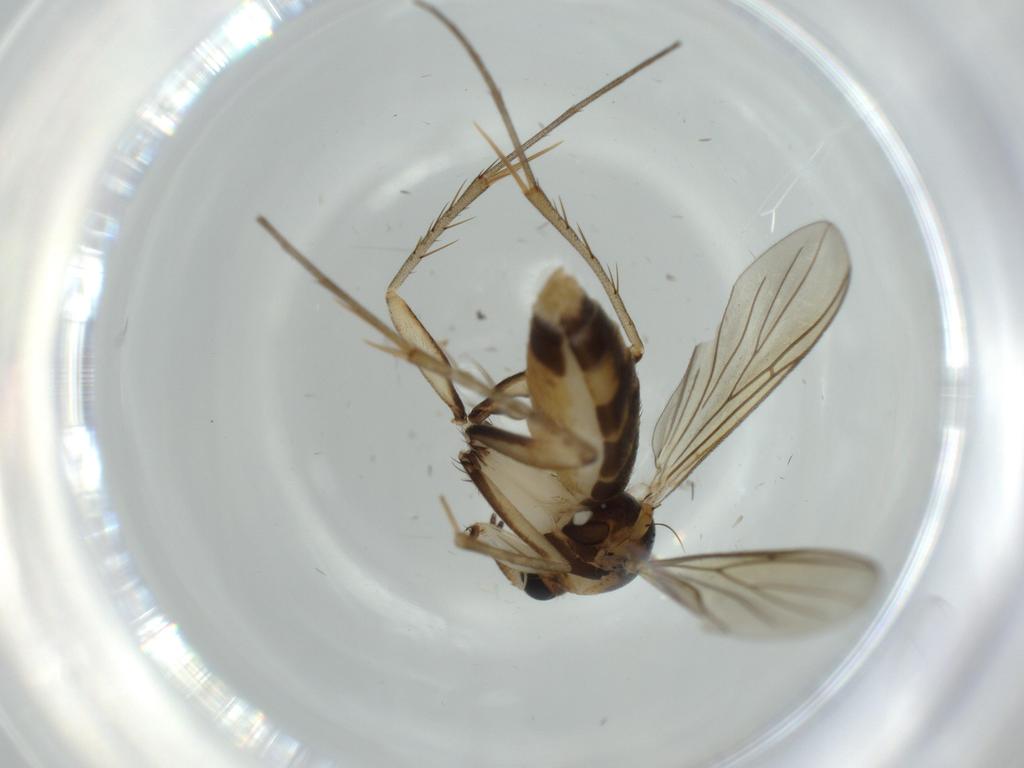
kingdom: Animalia
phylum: Arthropoda
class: Insecta
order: Diptera
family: Mycetophilidae
